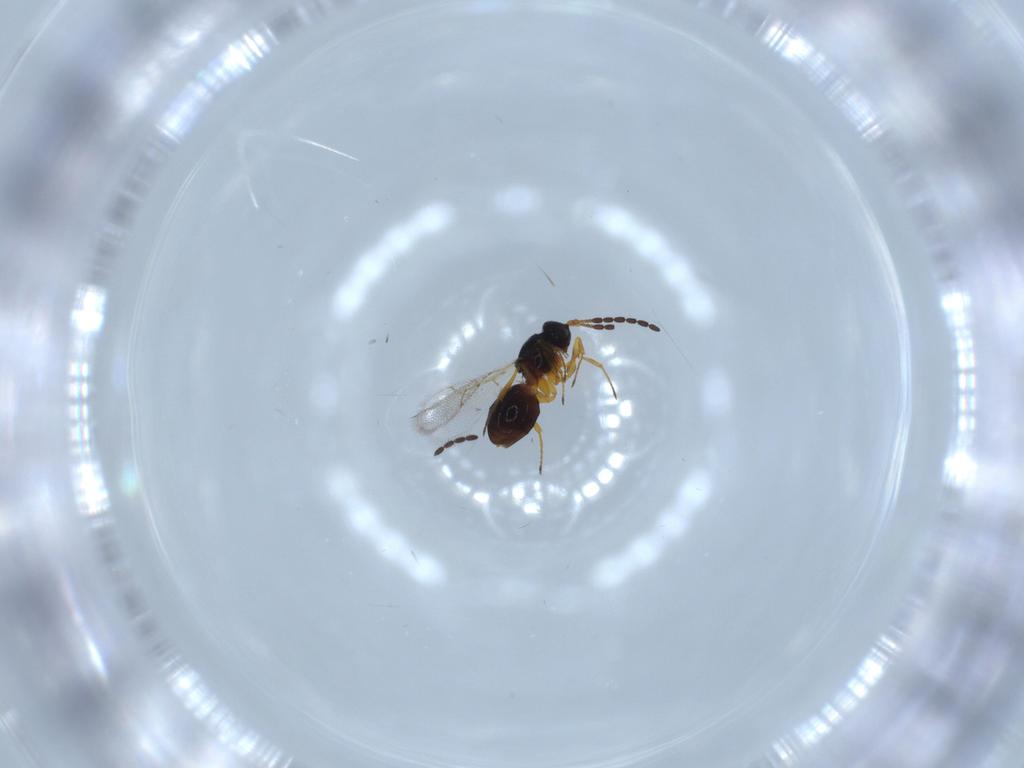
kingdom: Animalia
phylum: Arthropoda
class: Insecta
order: Hymenoptera
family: Figitidae
